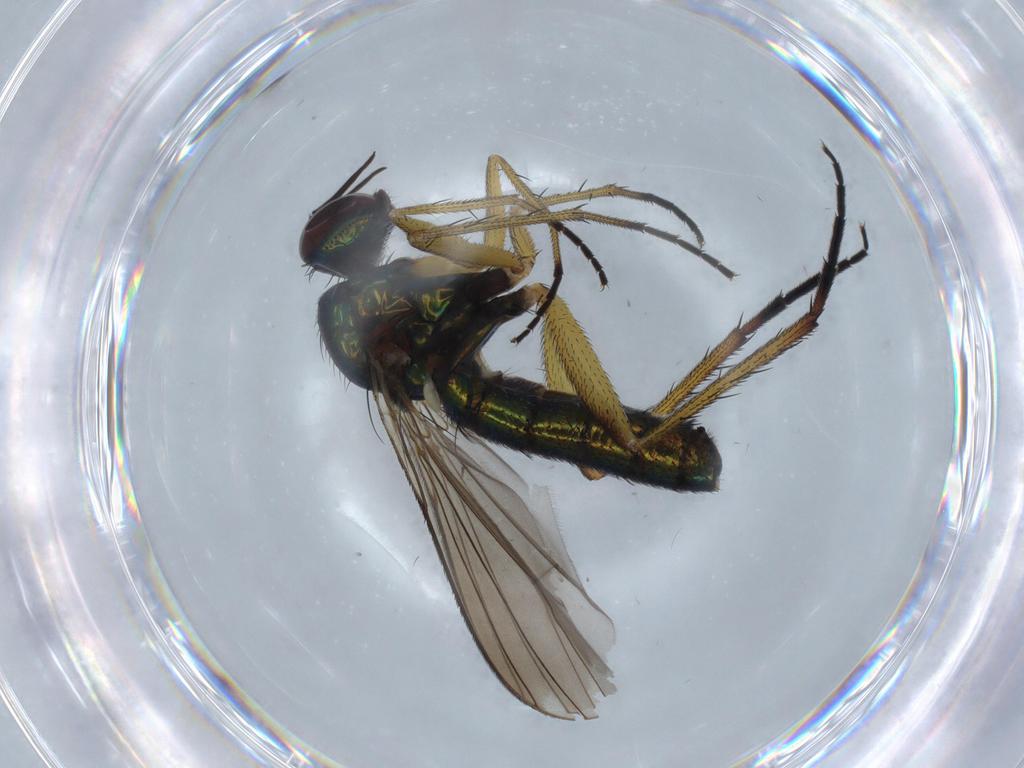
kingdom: Animalia
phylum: Arthropoda
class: Insecta
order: Diptera
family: Dolichopodidae
